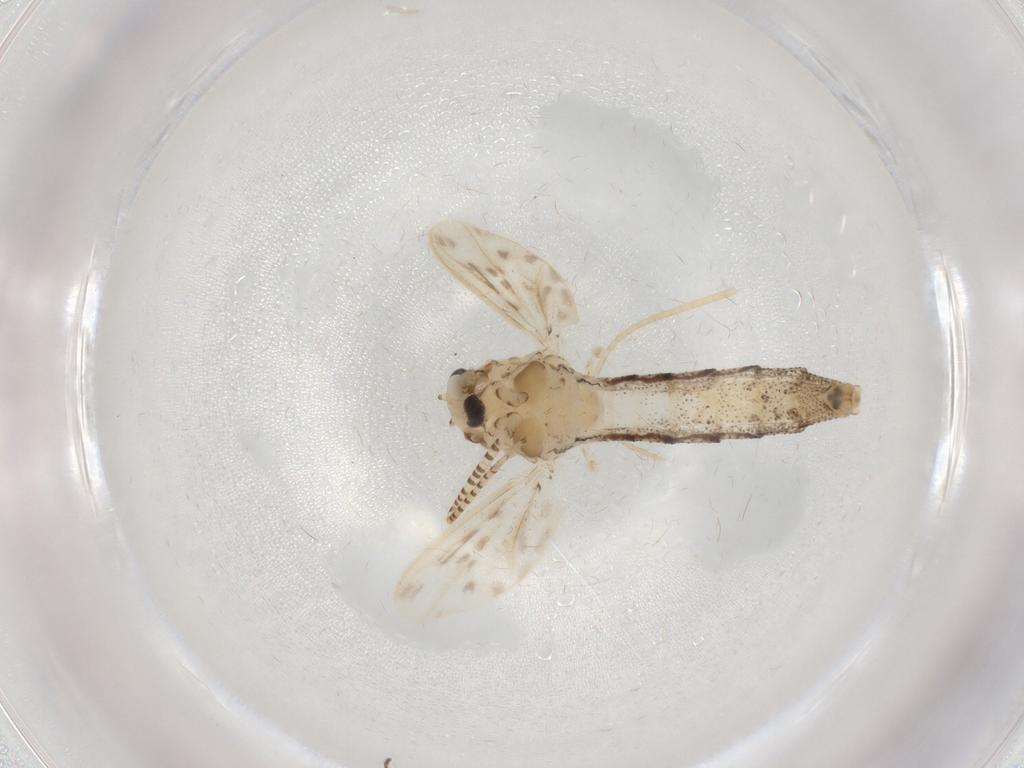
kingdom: Animalia
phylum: Arthropoda
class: Insecta
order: Diptera
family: Chaoboridae
